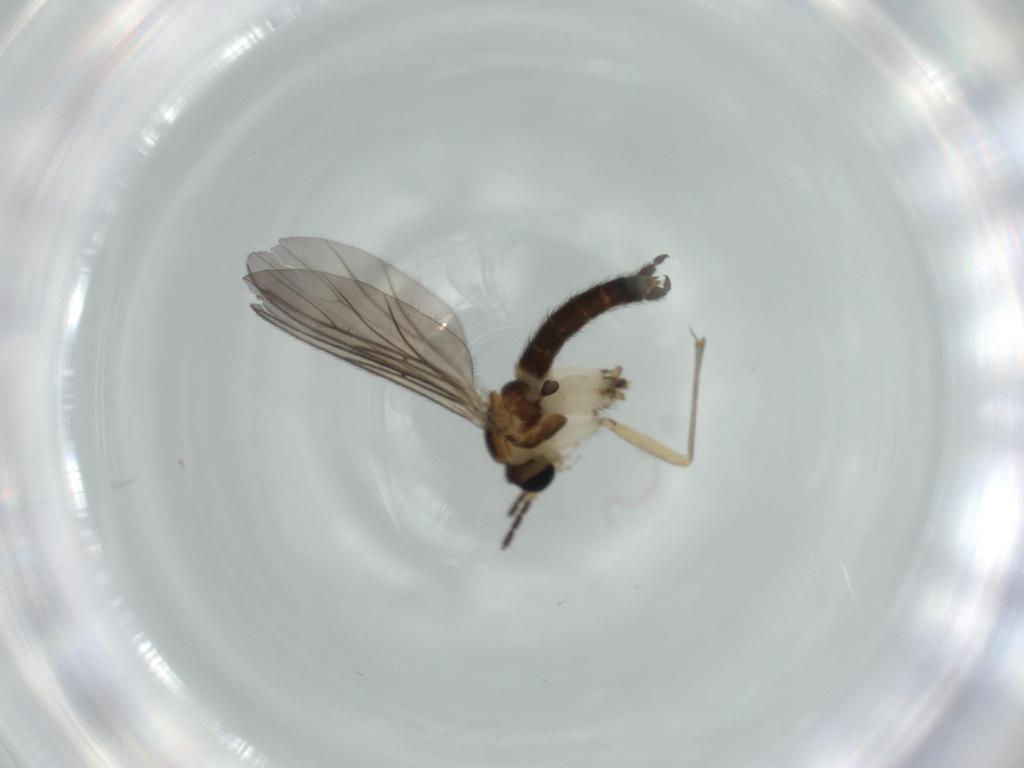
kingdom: Animalia
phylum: Arthropoda
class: Insecta
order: Diptera
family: Sciaridae
